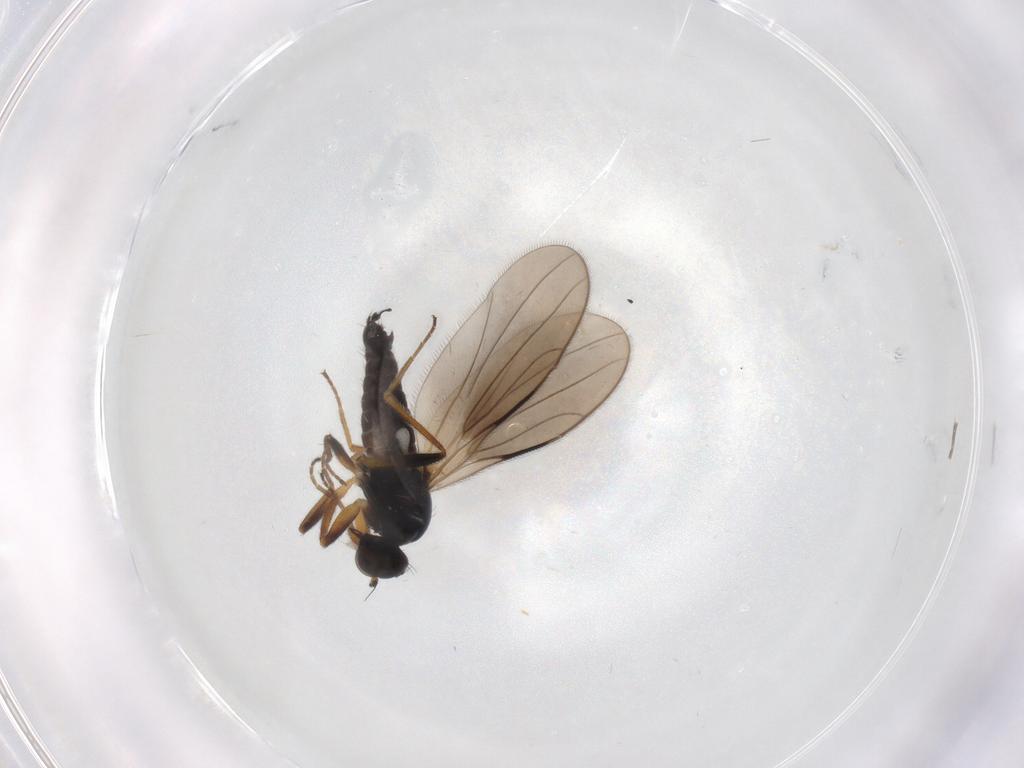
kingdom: Animalia
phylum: Arthropoda
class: Insecta
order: Diptera
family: Hybotidae
